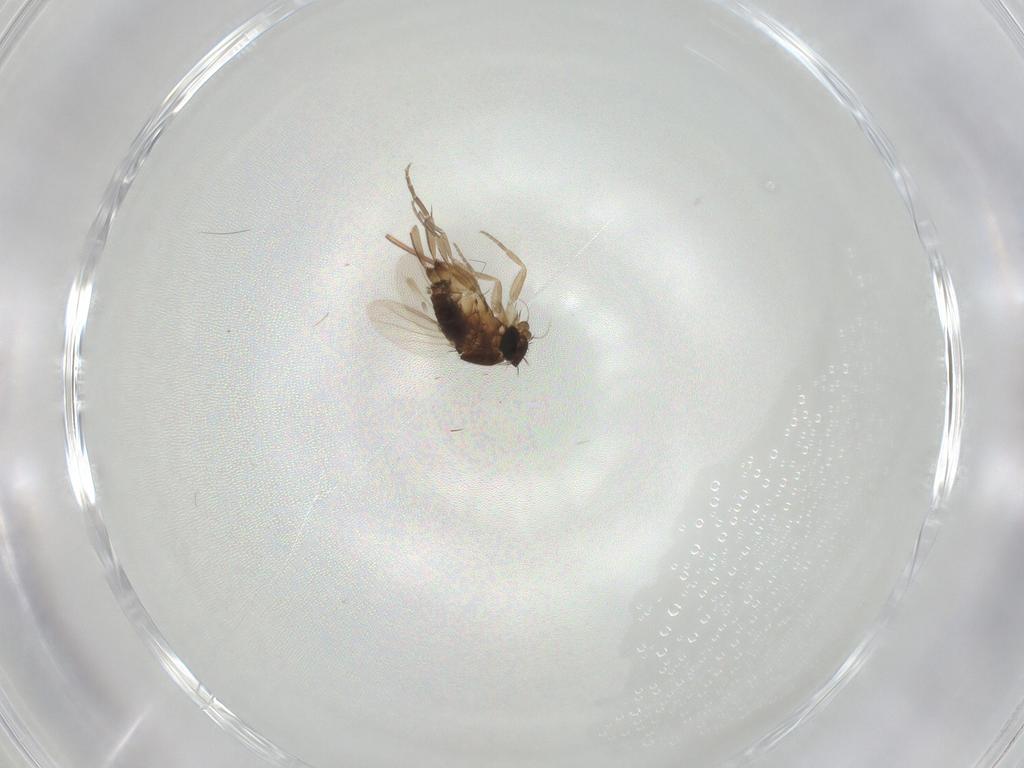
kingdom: Animalia
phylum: Arthropoda
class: Insecta
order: Diptera
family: Phoridae
